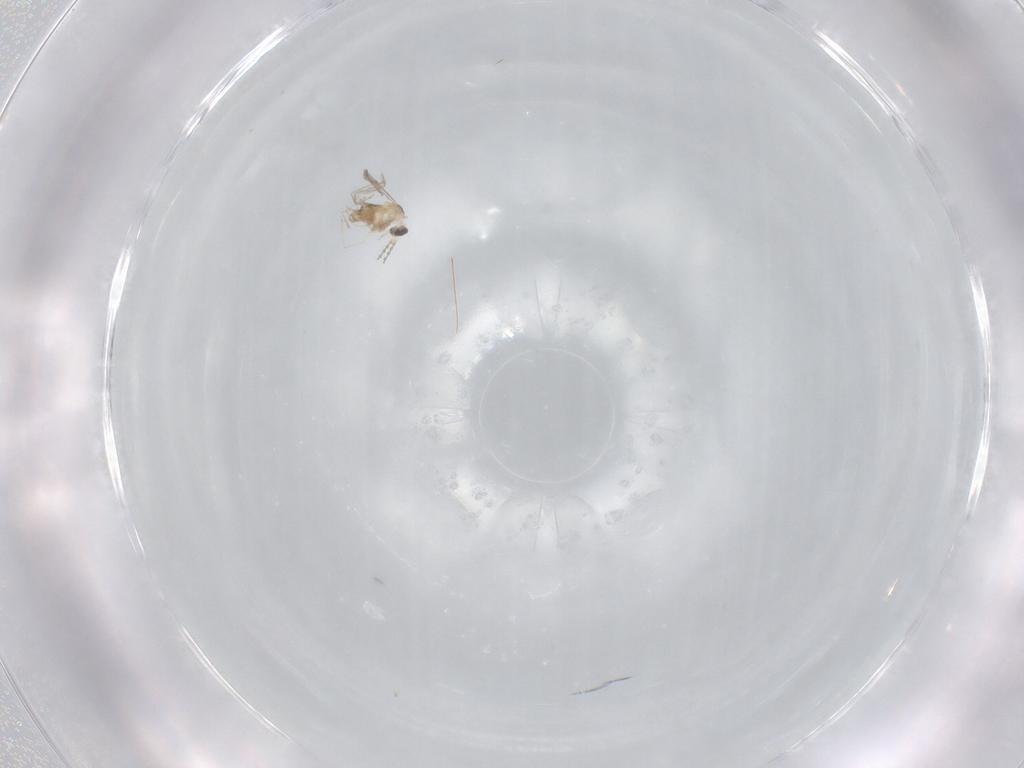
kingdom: Animalia
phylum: Arthropoda
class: Insecta
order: Diptera
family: Cecidomyiidae
